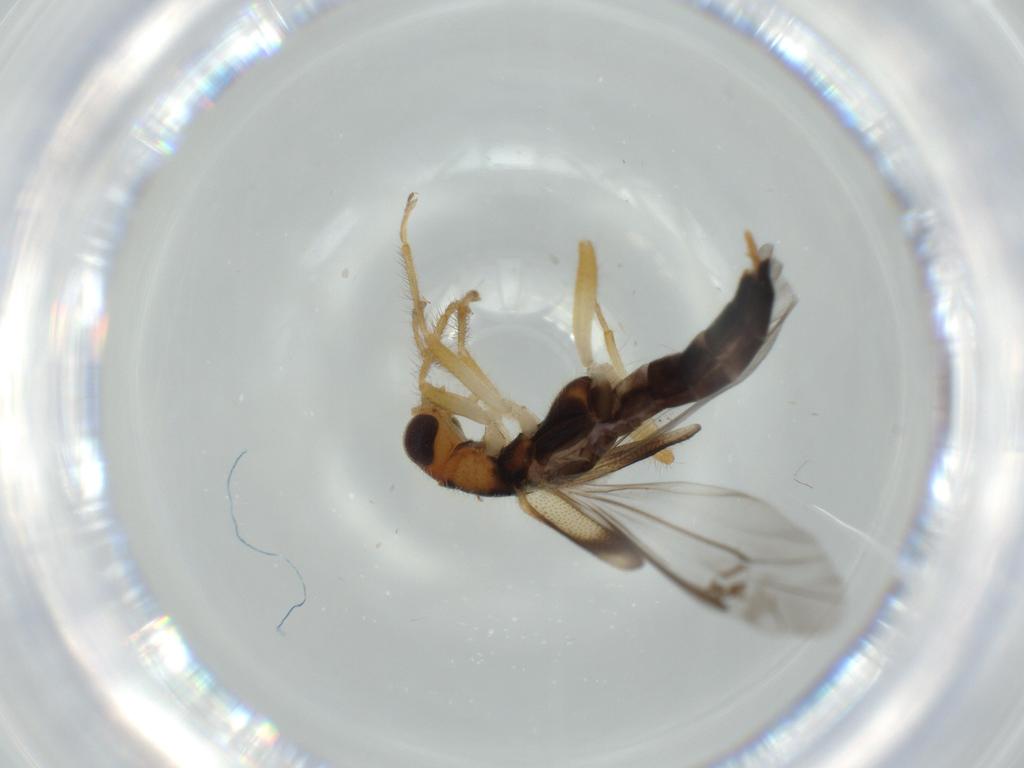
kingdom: Animalia
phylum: Arthropoda
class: Insecta
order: Coleoptera
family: Cleridae
